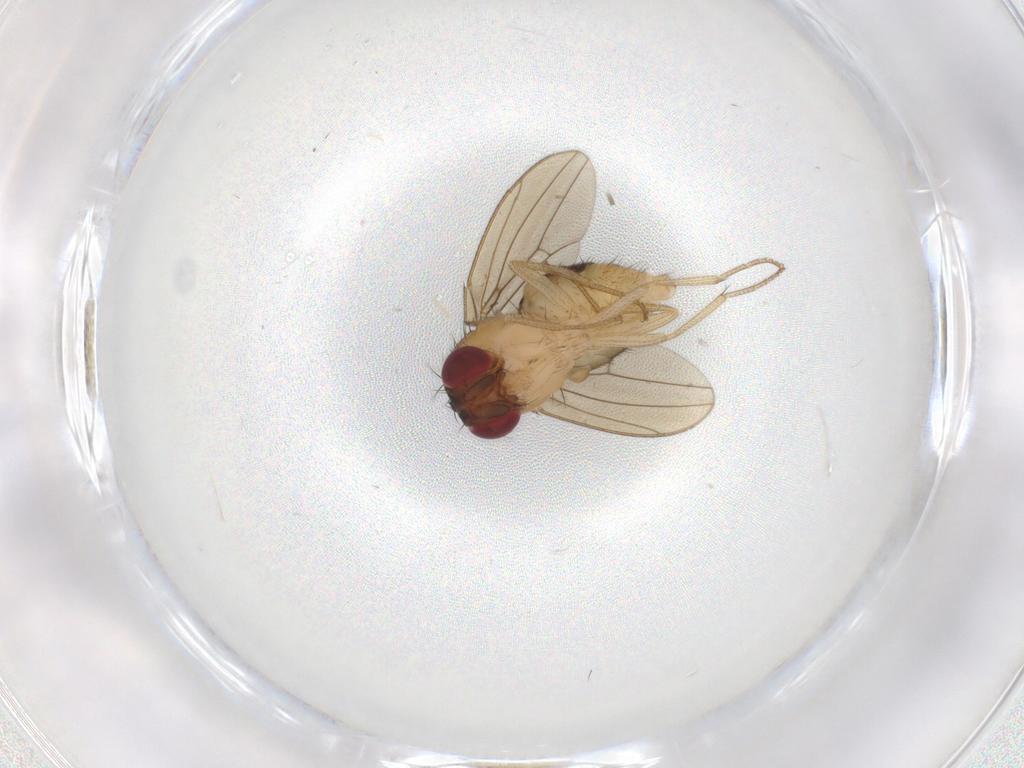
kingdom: Animalia
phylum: Arthropoda
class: Insecta
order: Diptera
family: Drosophilidae
